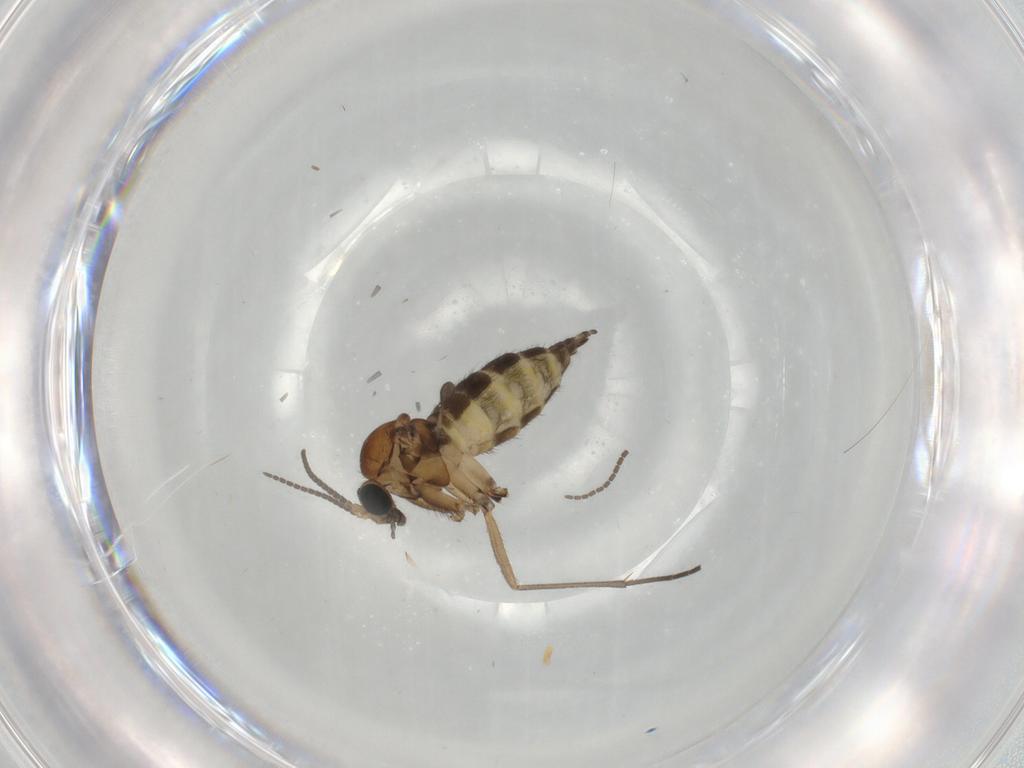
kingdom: Animalia
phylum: Arthropoda
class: Insecta
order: Diptera
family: Sciaridae
